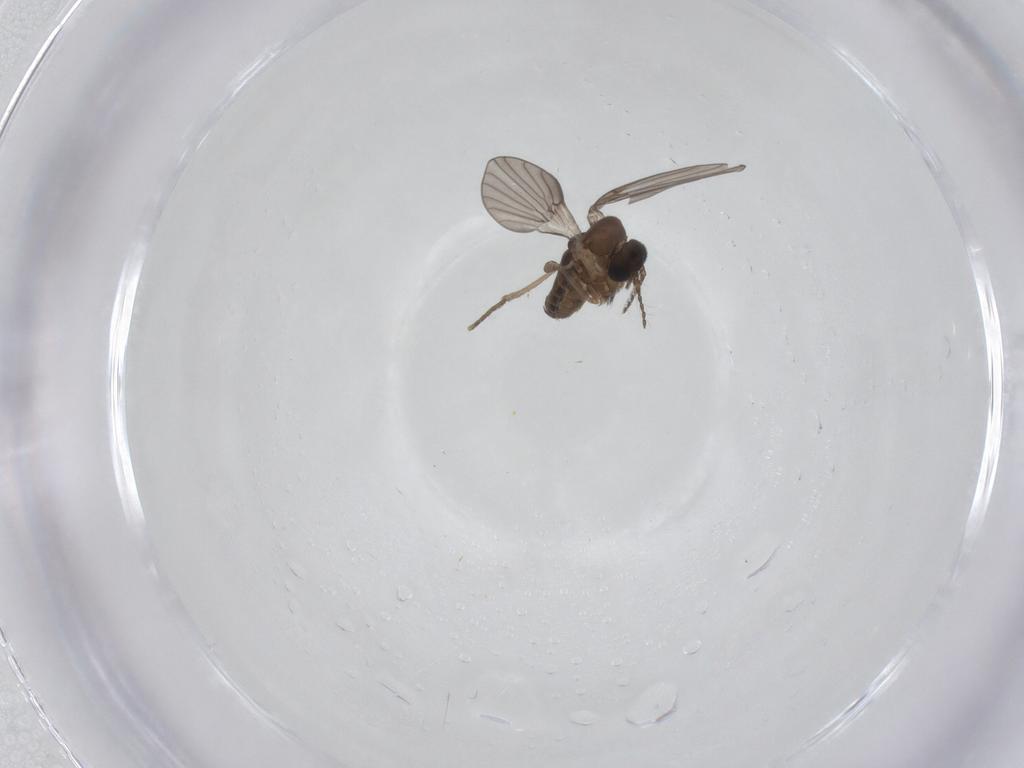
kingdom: Animalia
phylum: Arthropoda
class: Insecta
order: Diptera
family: Psychodidae
